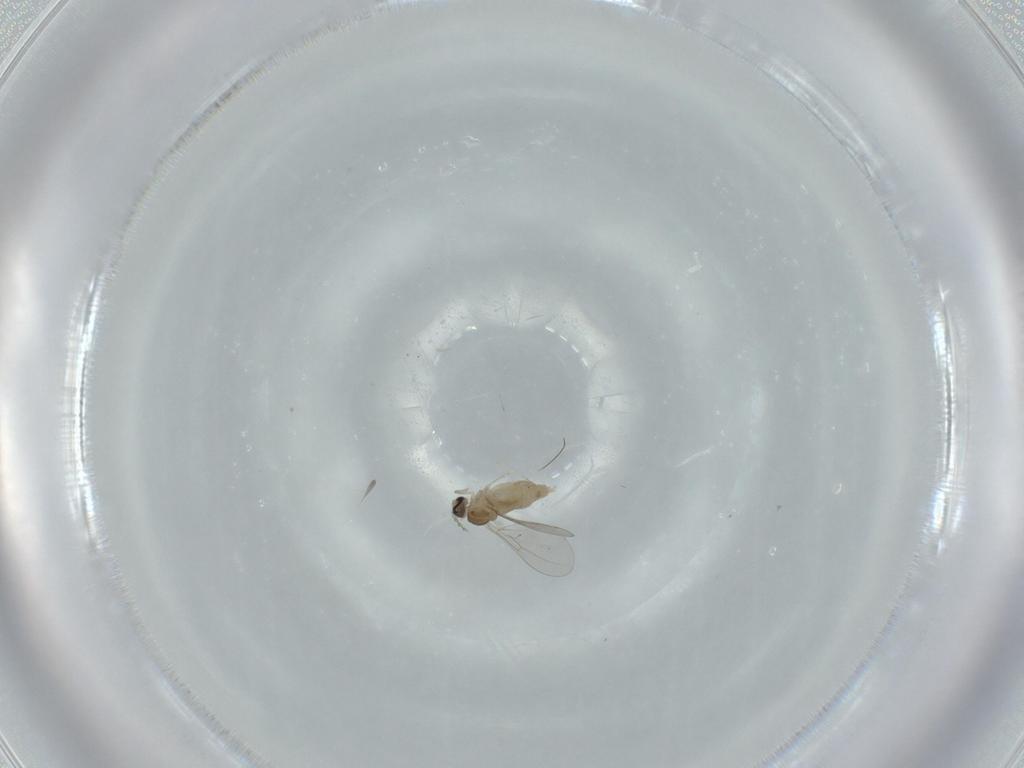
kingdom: Animalia
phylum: Arthropoda
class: Insecta
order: Diptera
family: Cecidomyiidae
